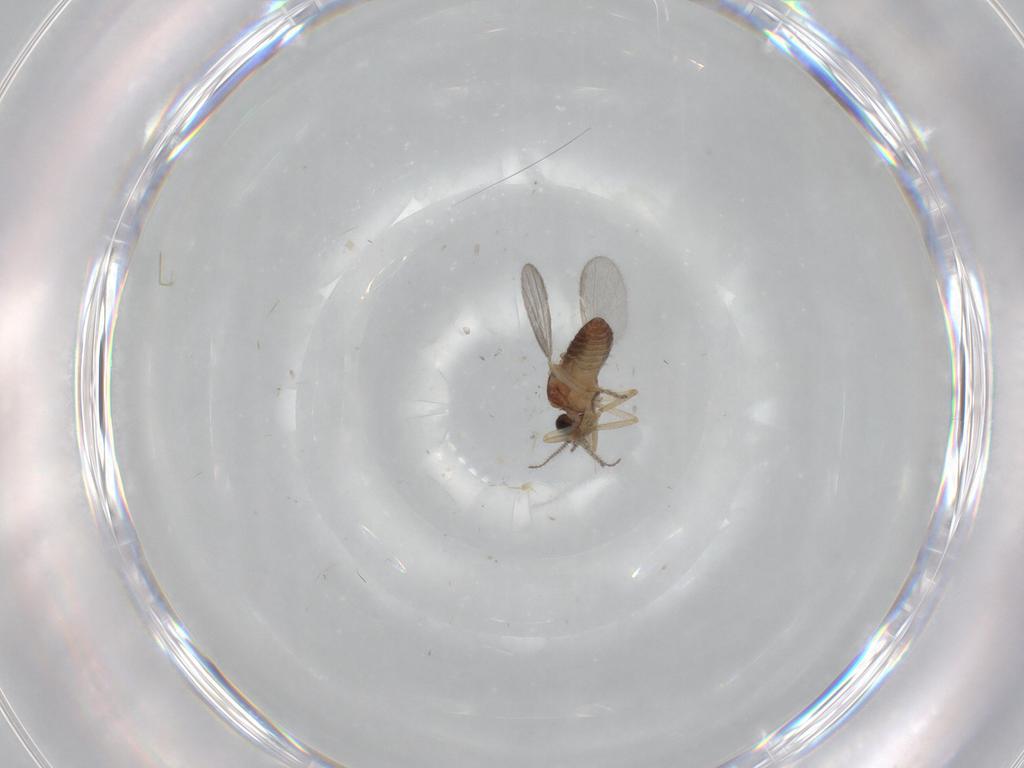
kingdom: Animalia
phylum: Arthropoda
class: Insecta
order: Diptera
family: Ceratopogonidae
